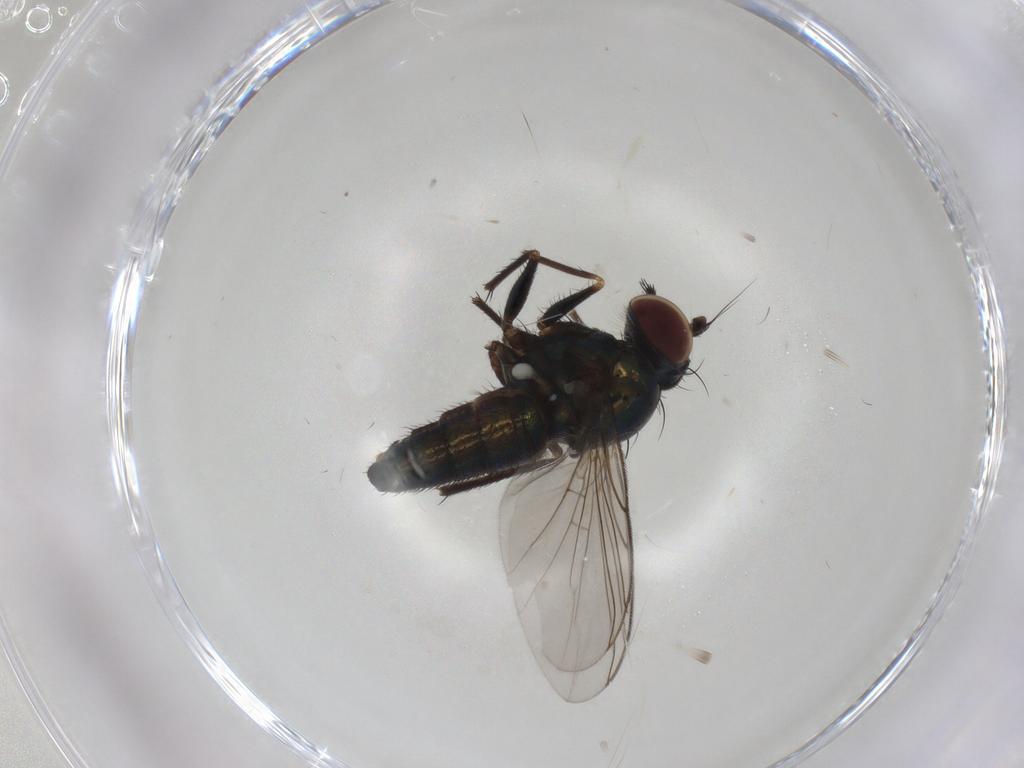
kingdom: Animalia
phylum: Arthropoda
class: Insecta
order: Diptera
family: Dolichopodidae
